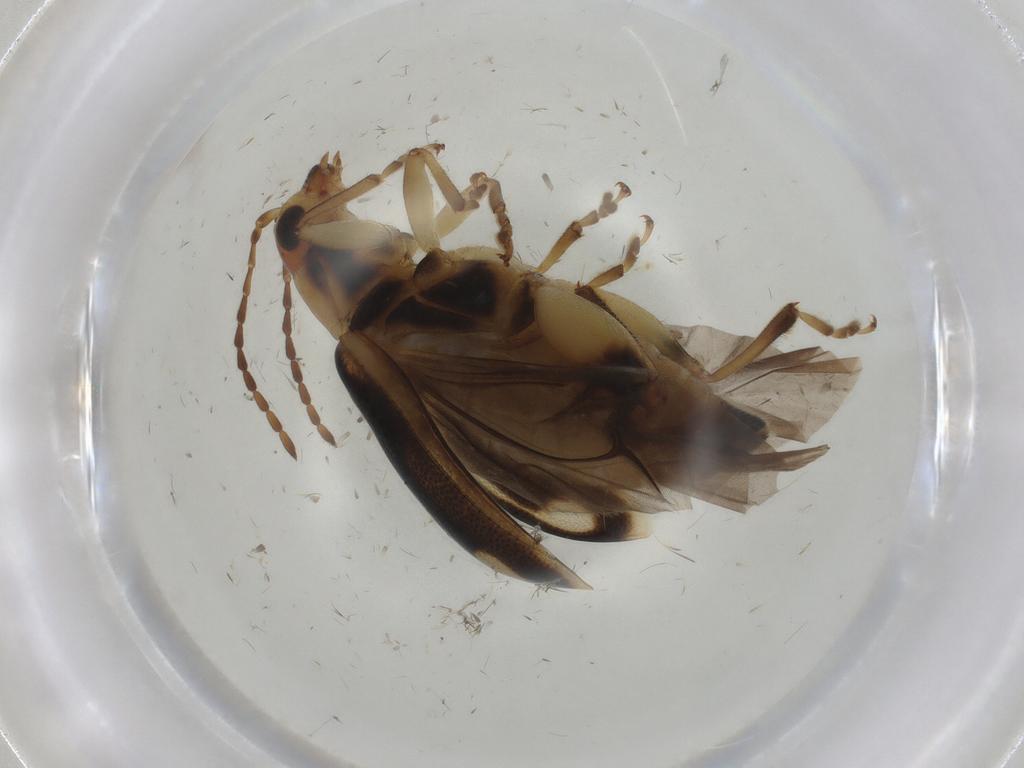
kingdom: Animalia
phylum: Arthropoda
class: Insecta
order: Coleoptera
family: Chrysomelidae
